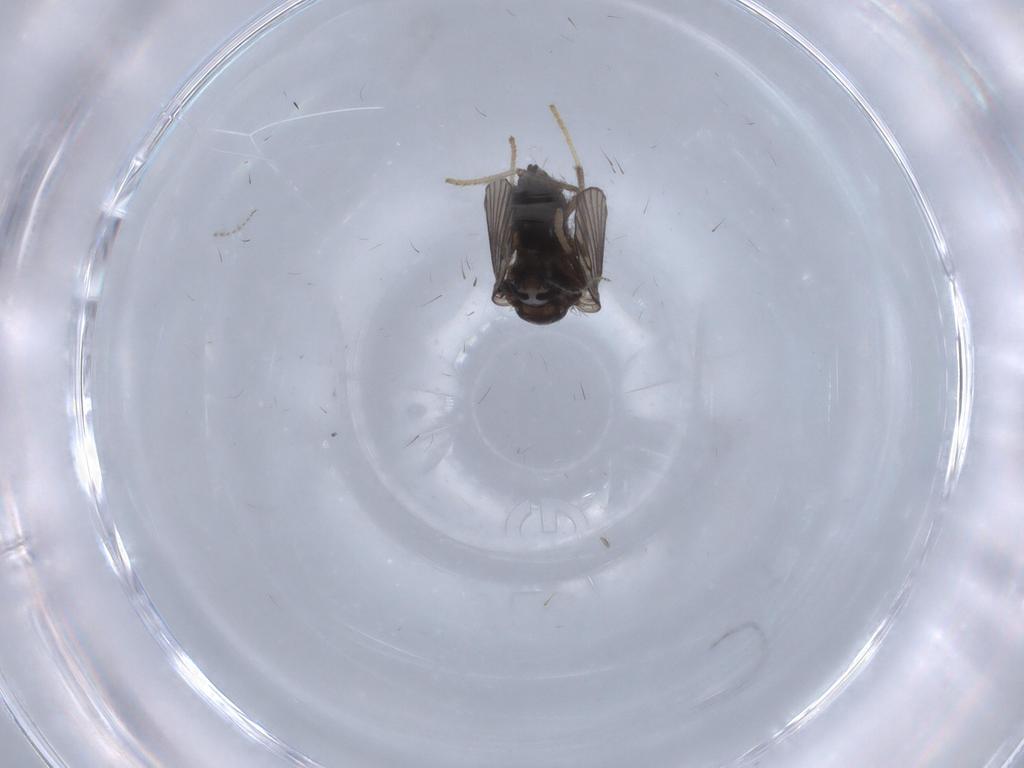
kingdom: Animalia
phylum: Arthropoda
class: Insecta
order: Diptera
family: Psychodidae
